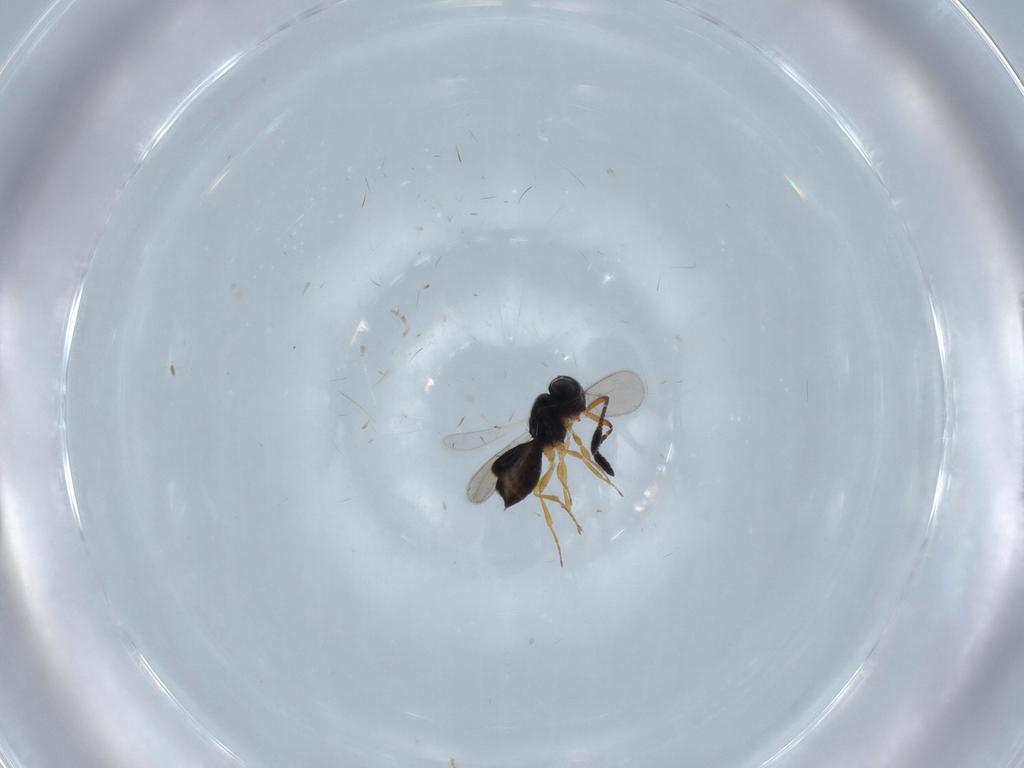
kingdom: Animalia
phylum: Arthropoda
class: Insecta
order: Hymenoptera
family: Scelionidae
